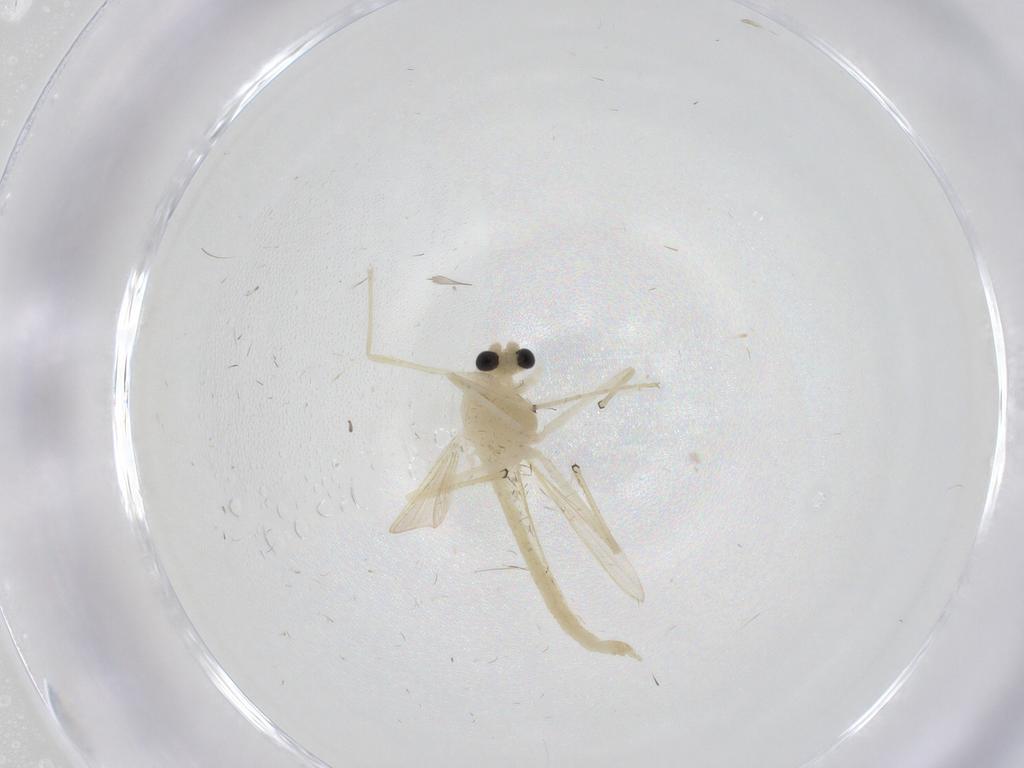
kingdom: Animalia
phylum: Arthropoda
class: Insecta
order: Diptera
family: Chironomidae
